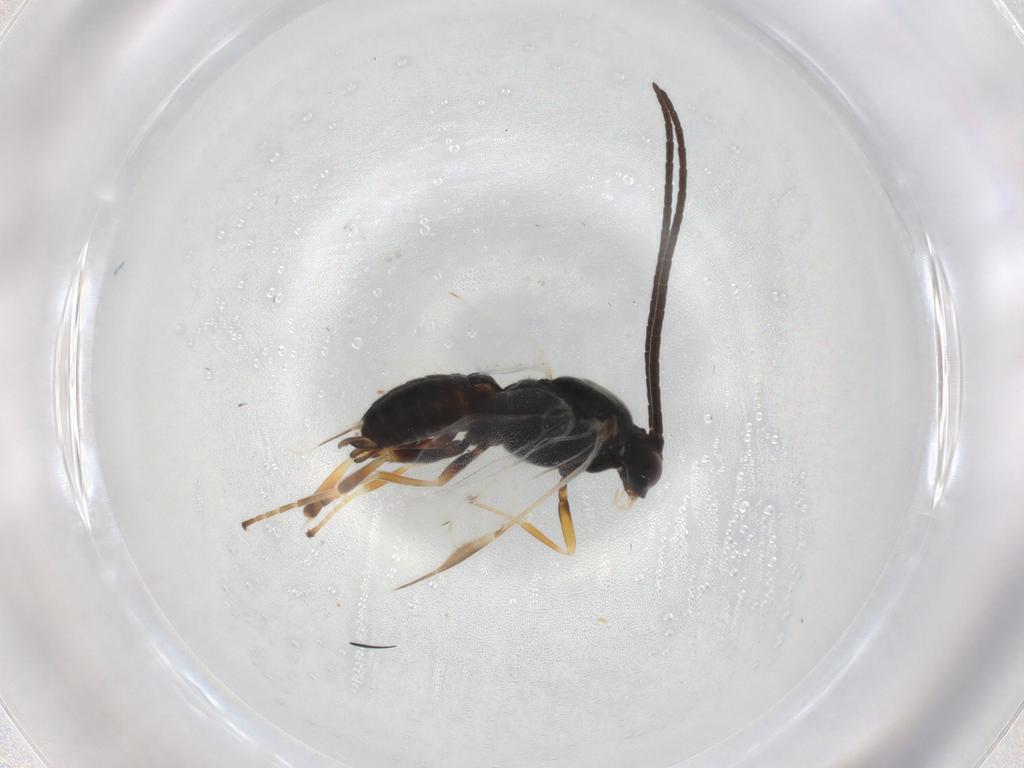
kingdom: Animalia
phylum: Arthropoda
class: Insecta
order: Hymenoptera
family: Braconidae
